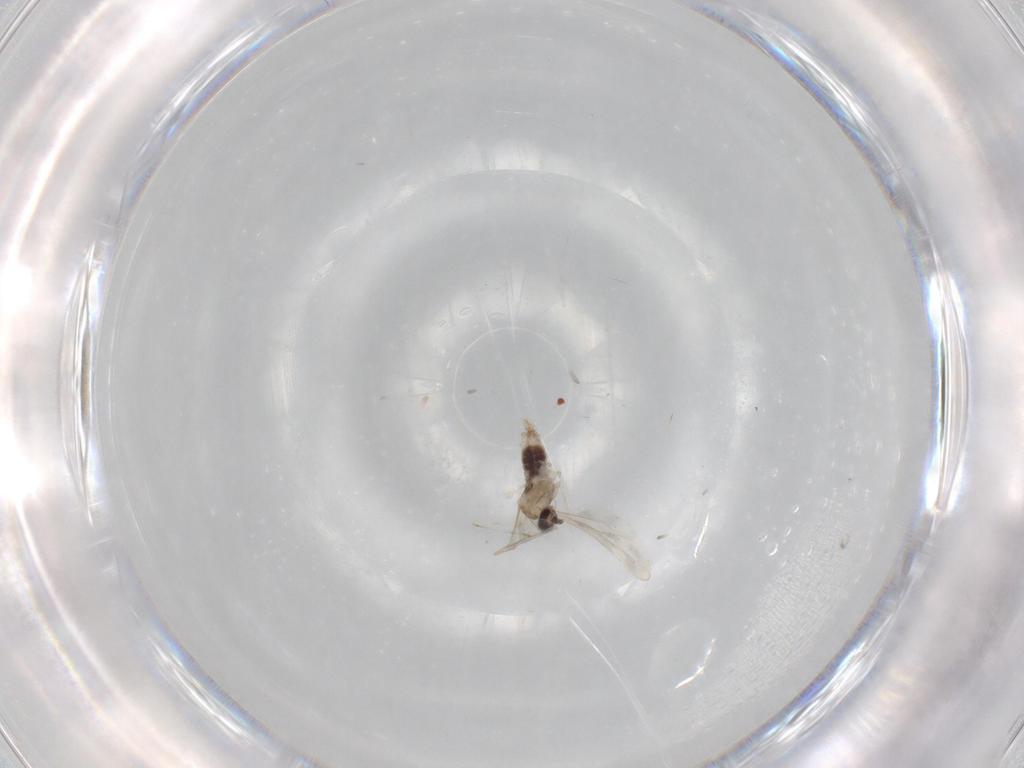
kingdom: Animalia
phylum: Arthropoda
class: Insecta
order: Diptera
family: Cecidomyiidae
